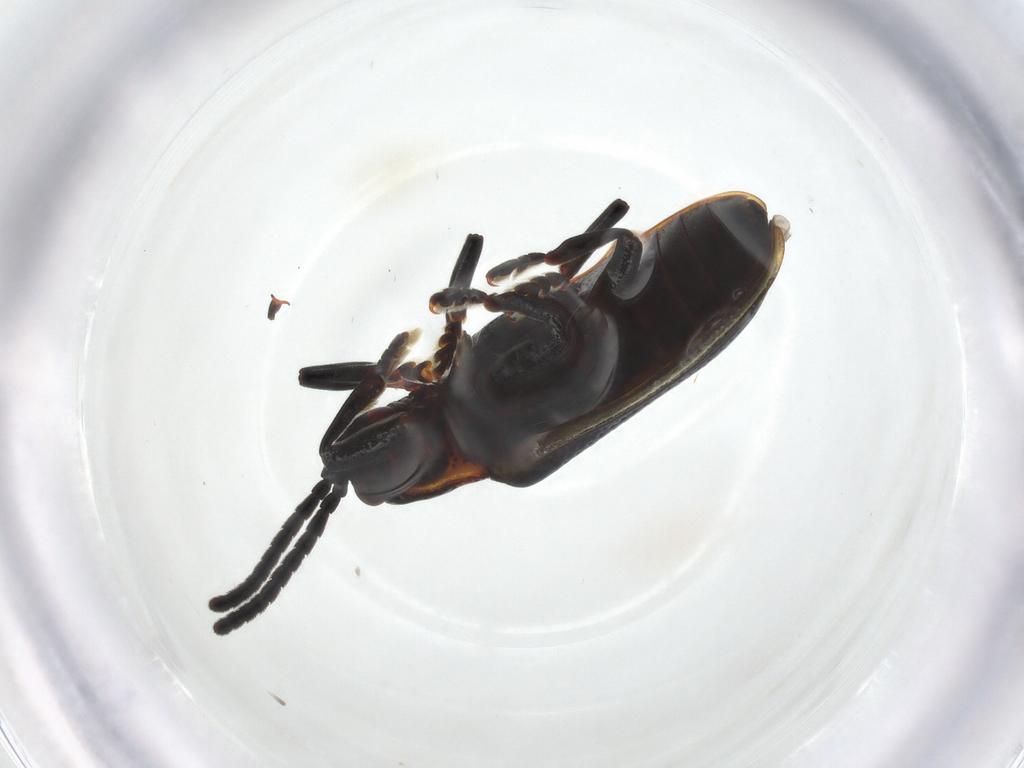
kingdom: Animalia
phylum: Arthropoda
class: Insecta
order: Coleoptera
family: Chrysomelidae
